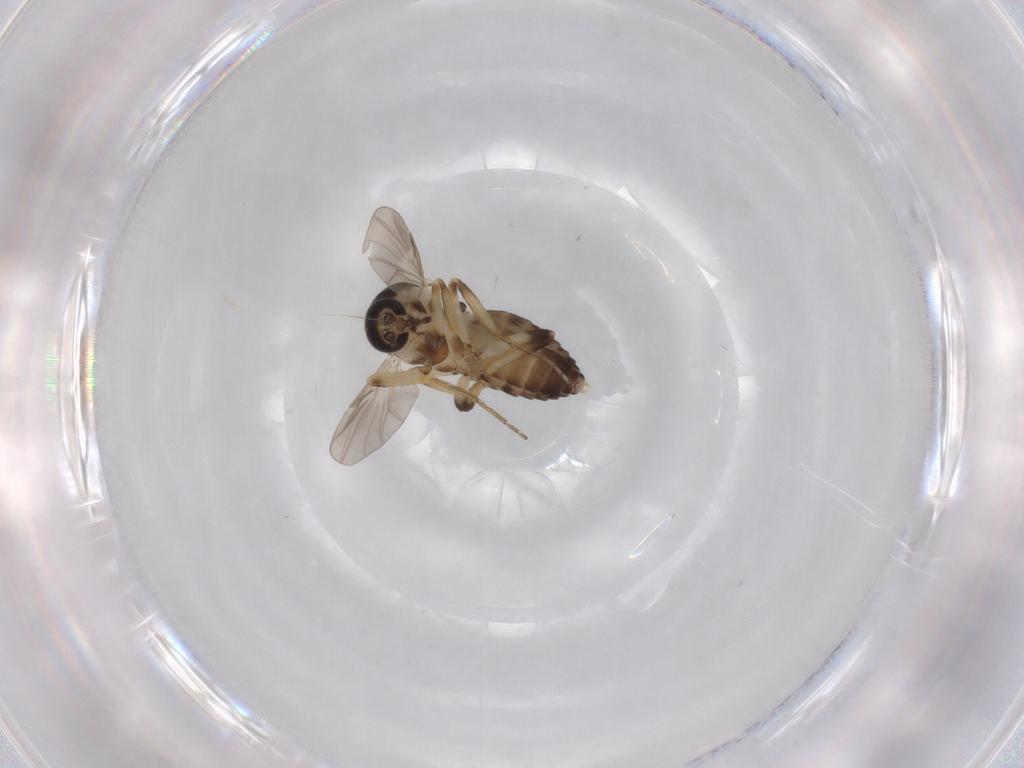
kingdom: Animalia
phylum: Arthropoda
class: Insecta
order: Diptera
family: Ceratopogonidae
